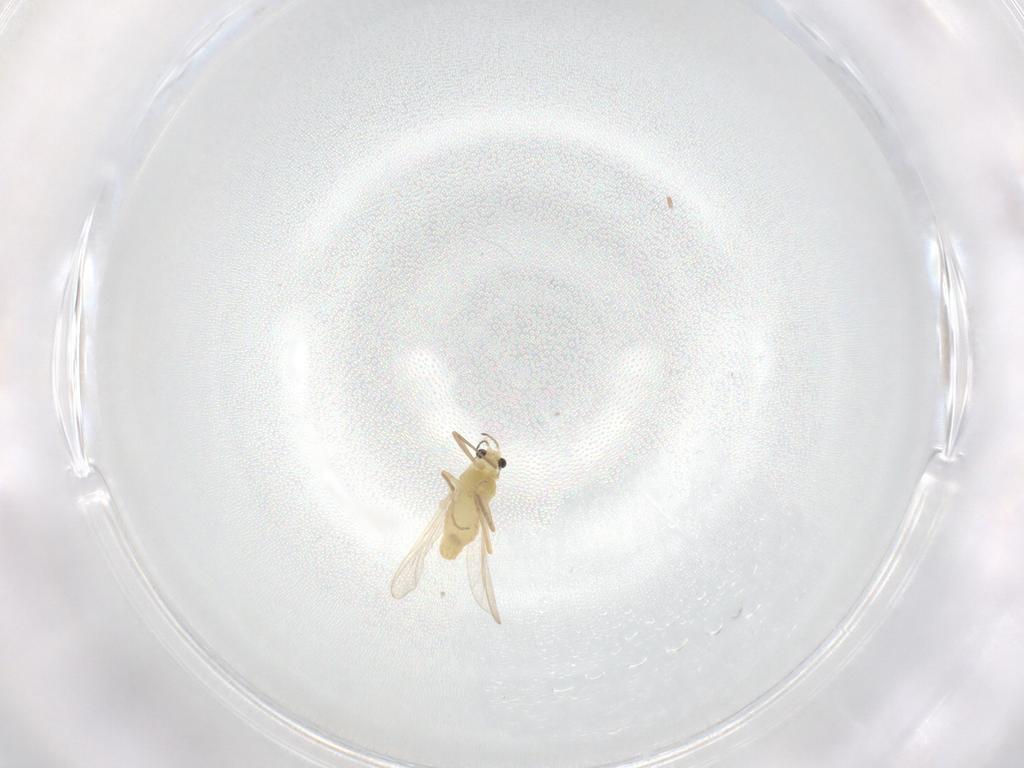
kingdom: Animalia
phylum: Arthropoda
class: Insecta
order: Diptera
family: Chironomidae
